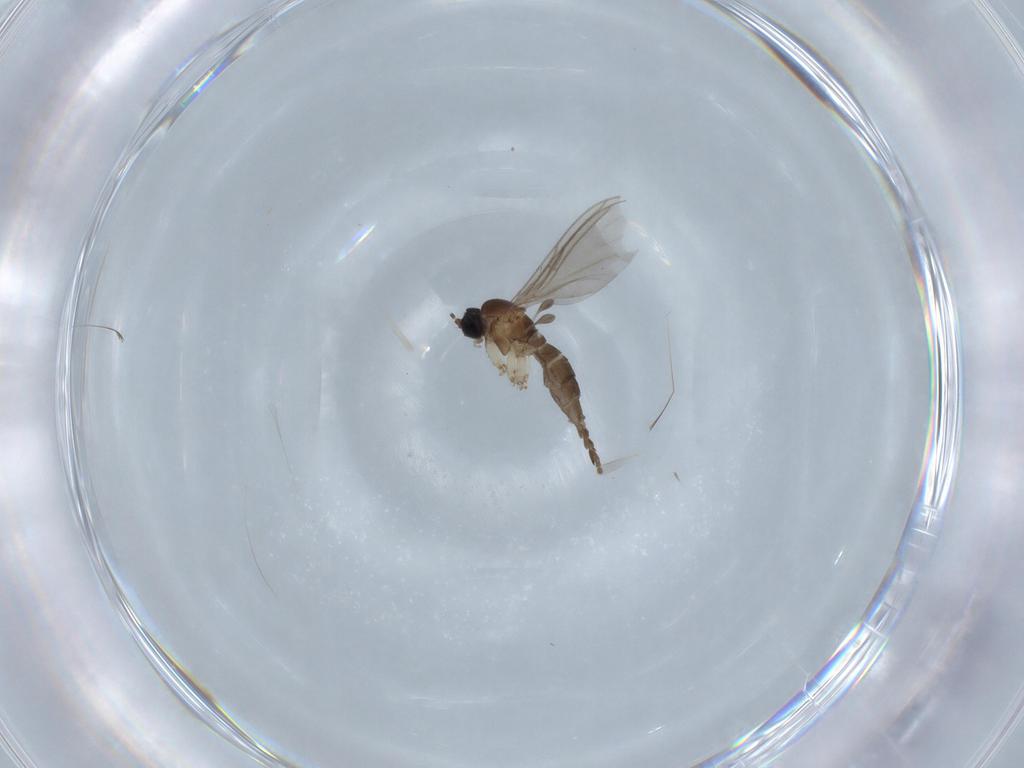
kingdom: Animalia
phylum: Arthropoda
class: Insecta
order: Diptera
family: Sciaridae
